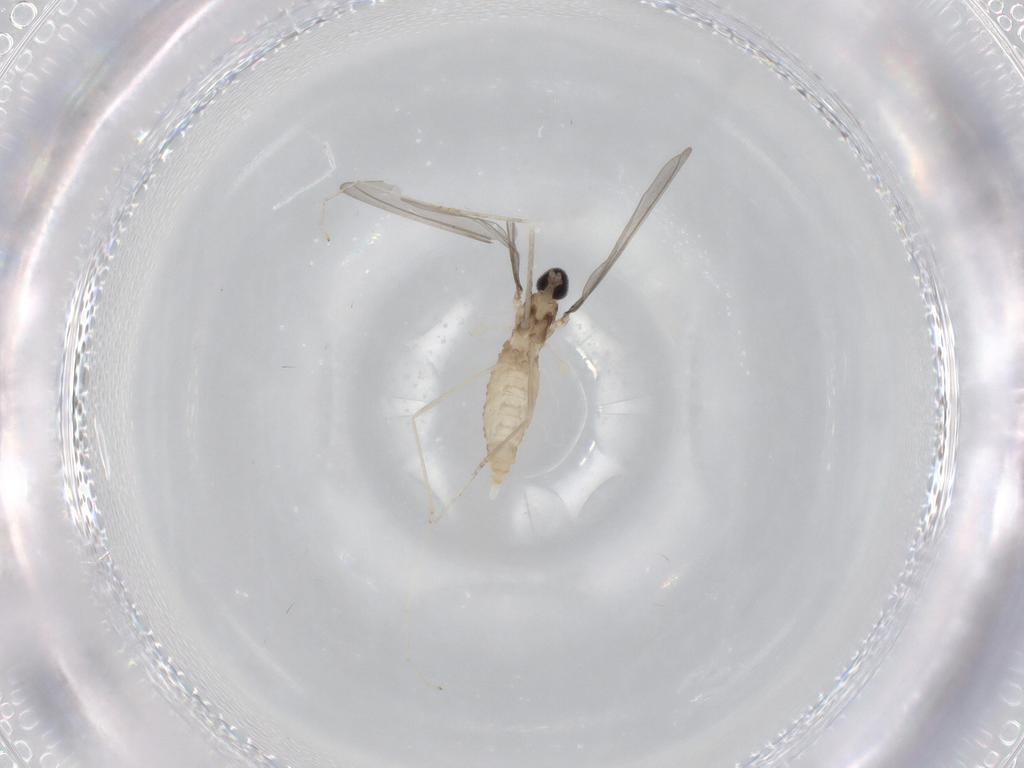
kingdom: Animalia
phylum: Arthropoda
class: Insecta
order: Diptera
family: Cecidomyiidae
